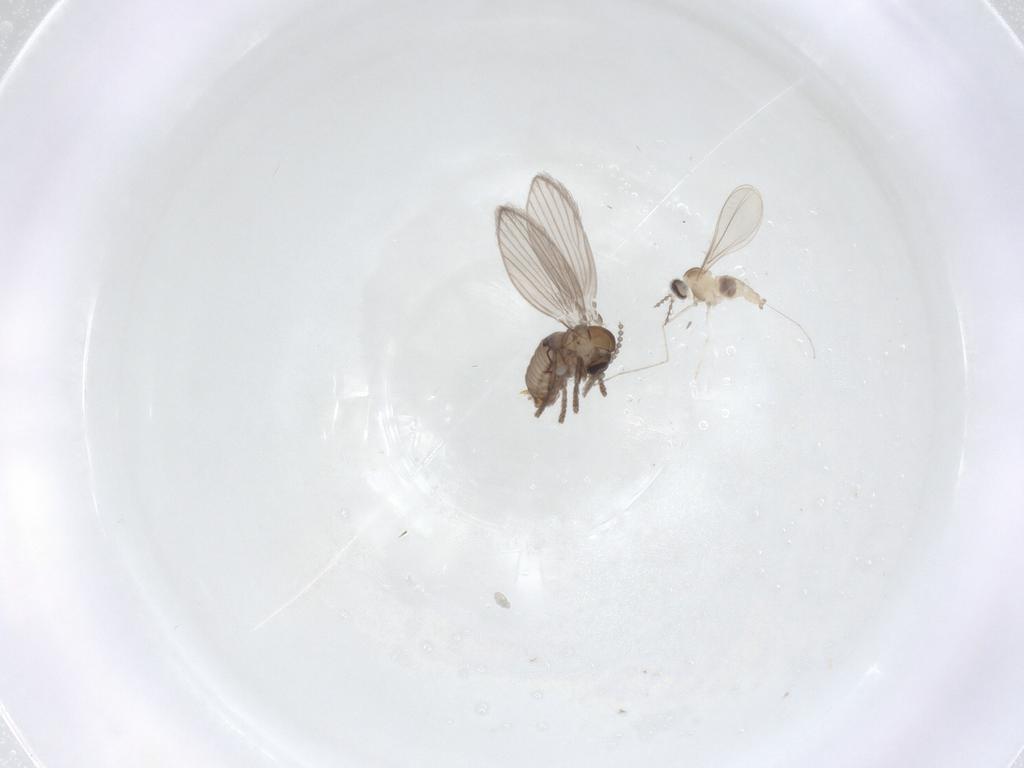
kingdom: Animalia
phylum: Arthropoda
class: Insecta
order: Diptera
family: Psychodidae
